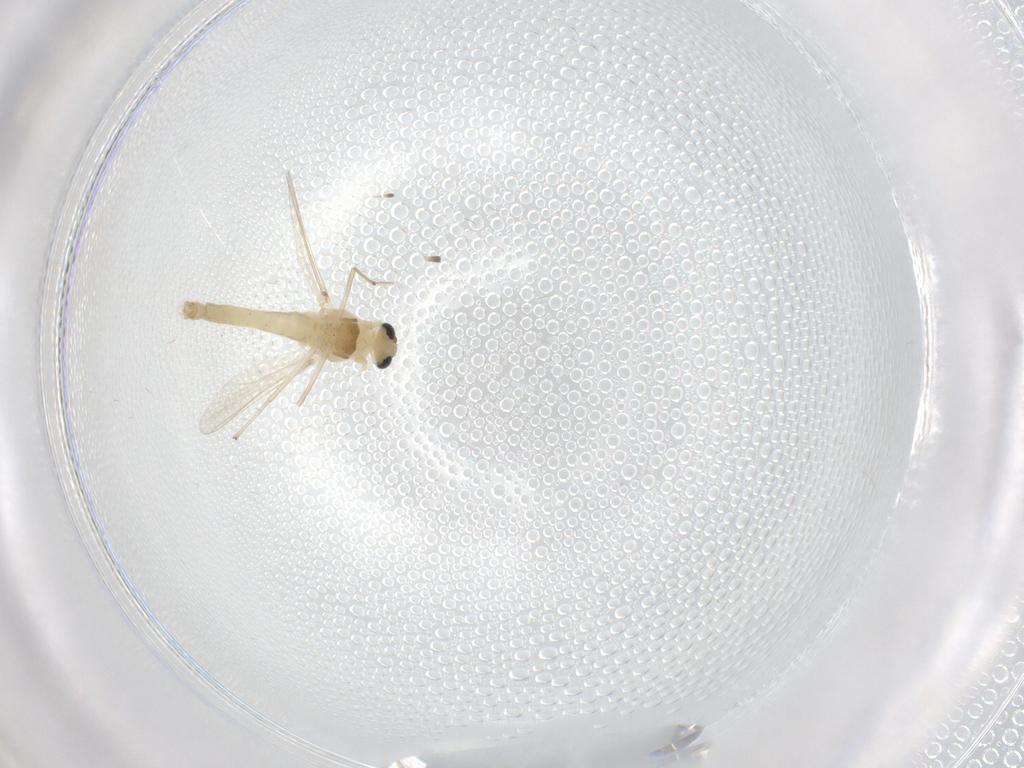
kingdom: Animalia
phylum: Arthropoda
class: Insecta
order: Diptera
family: Chironomidae
